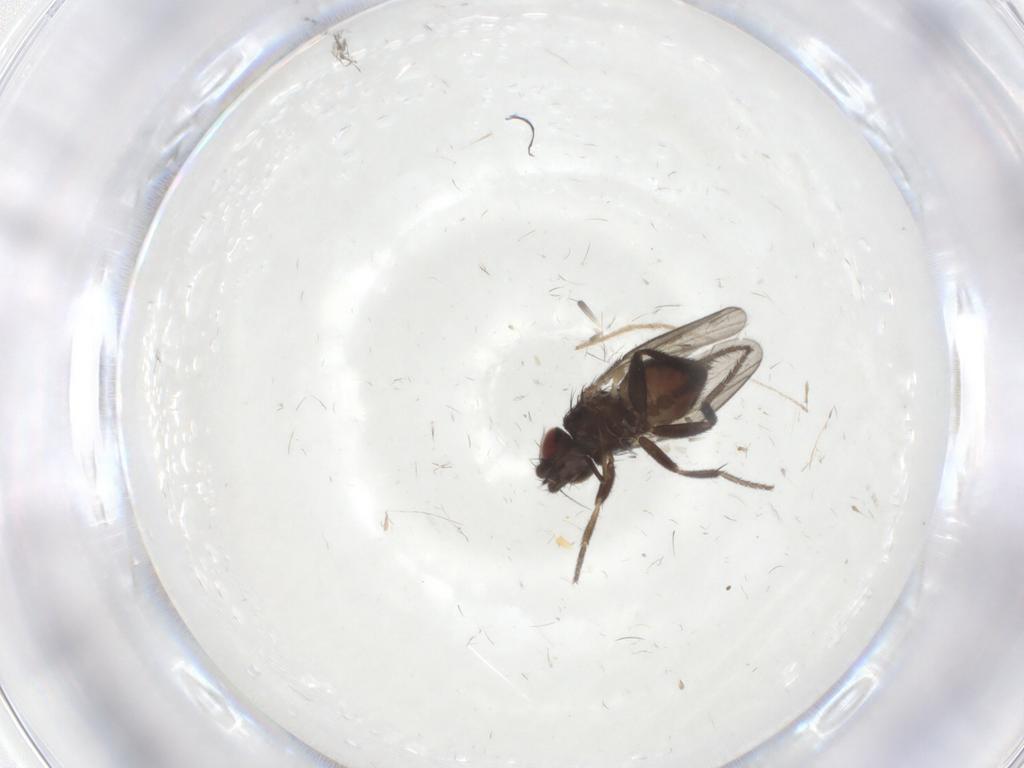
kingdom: Animalia
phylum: Arthropoda
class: Insecta
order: Diptera
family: Milichiidae
